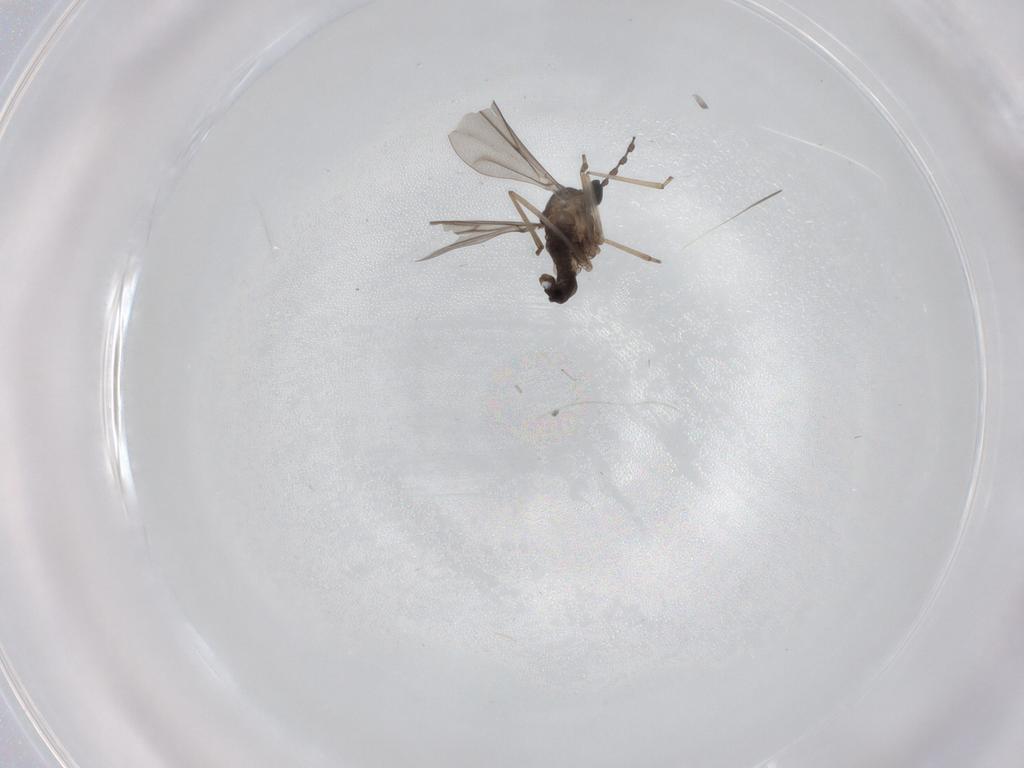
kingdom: Animalia
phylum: Arthropoda
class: Insecta
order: Diptera
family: Cecidomyiidae
